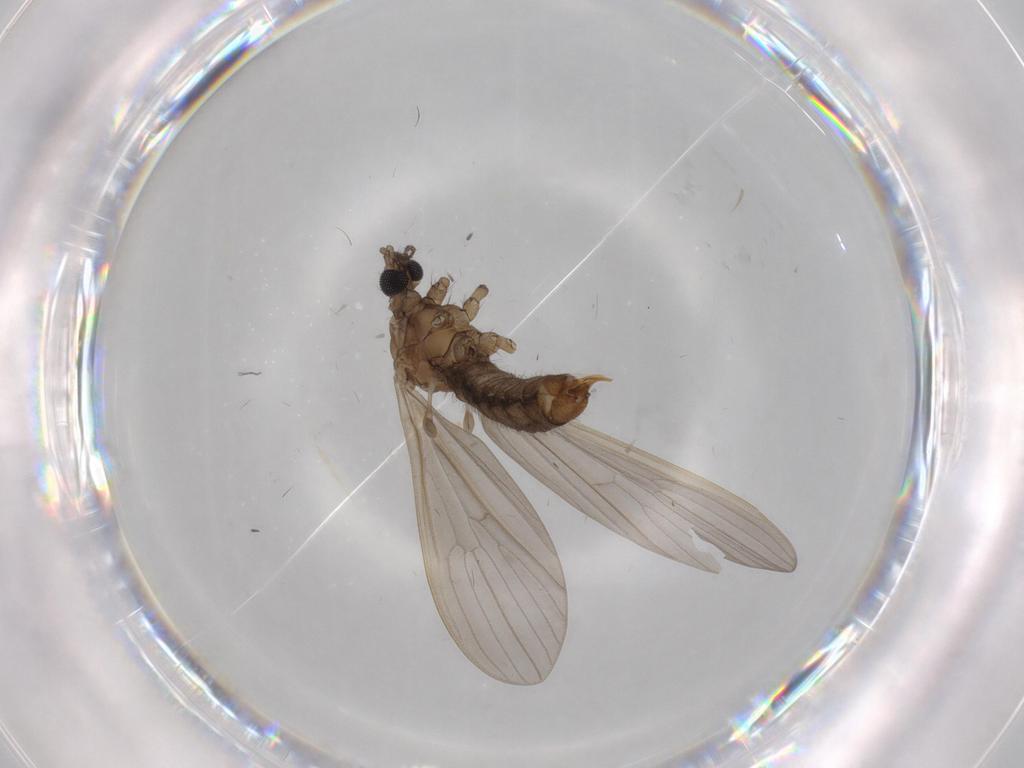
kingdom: Animalia
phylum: Arthropoda
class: Insecta
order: Diptera
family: Limoniidae
